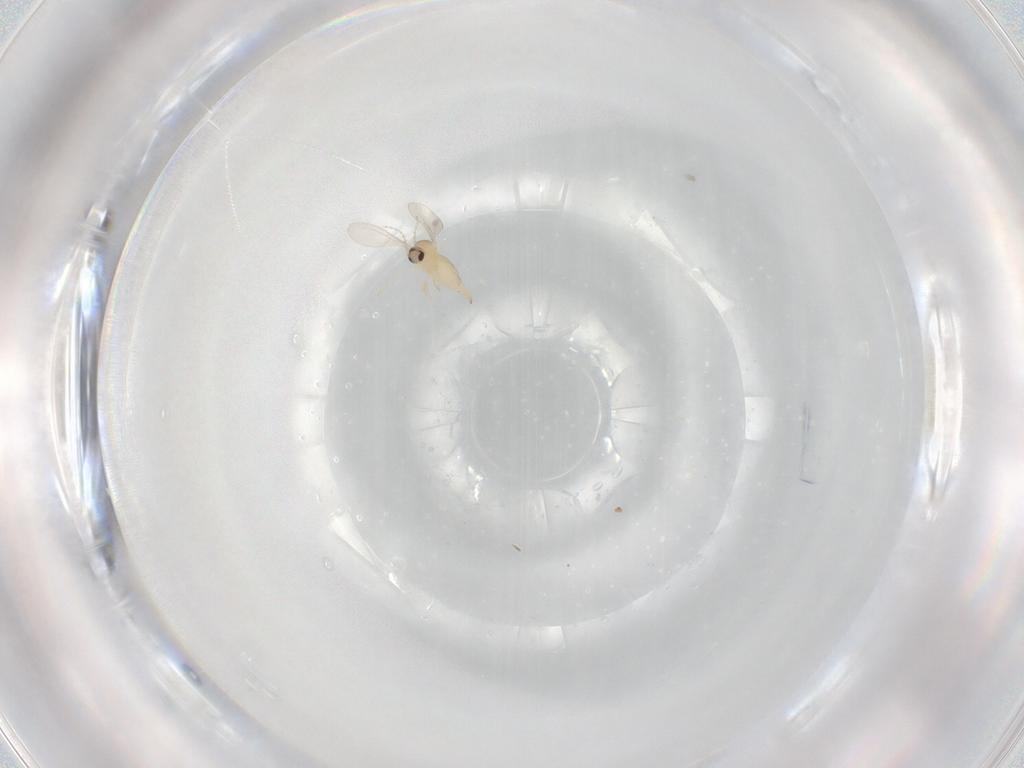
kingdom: Animalia
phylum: Arthropoda
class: Insecta
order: Diptera
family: Cecidomyiidae
